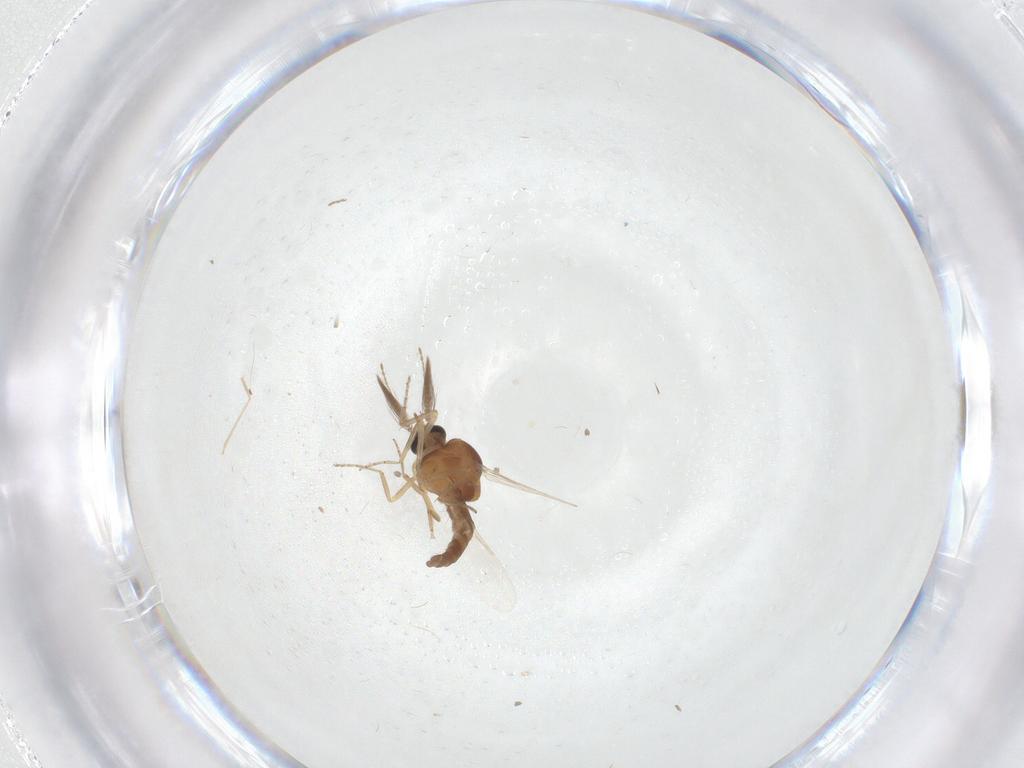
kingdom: Animalia
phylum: Arthropoda
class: Insecta
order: Diptera
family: Ceratopogonidae
